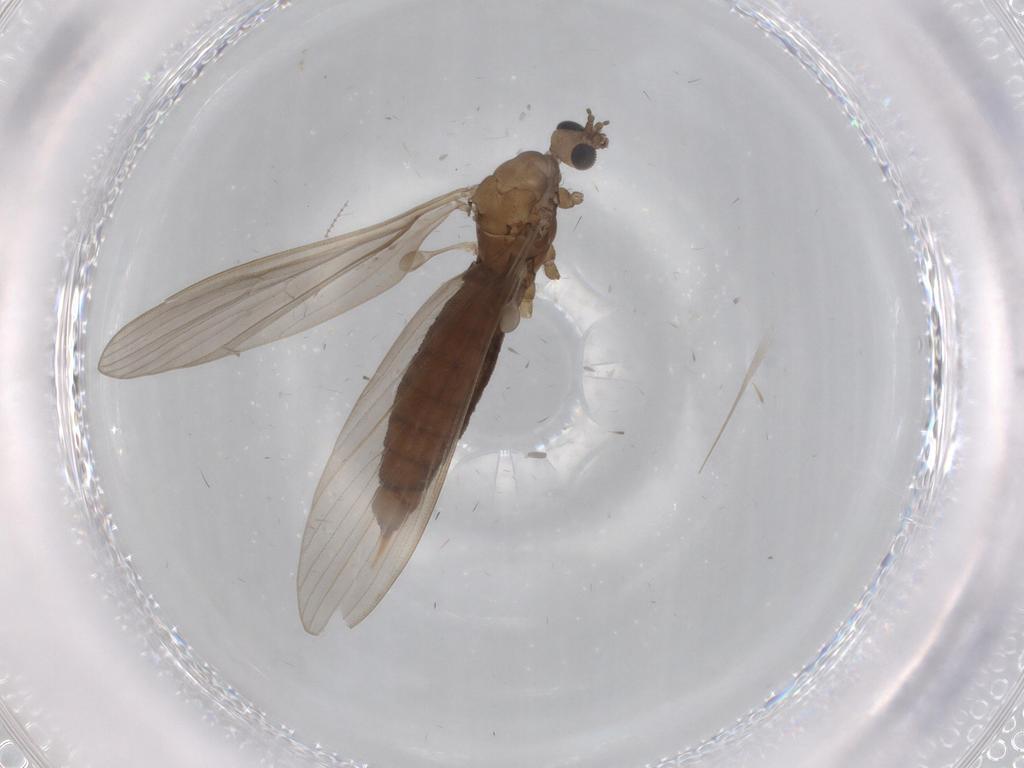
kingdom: Animalia
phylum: Arthropoda
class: Insecta
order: Diptera
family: Limoniidae
